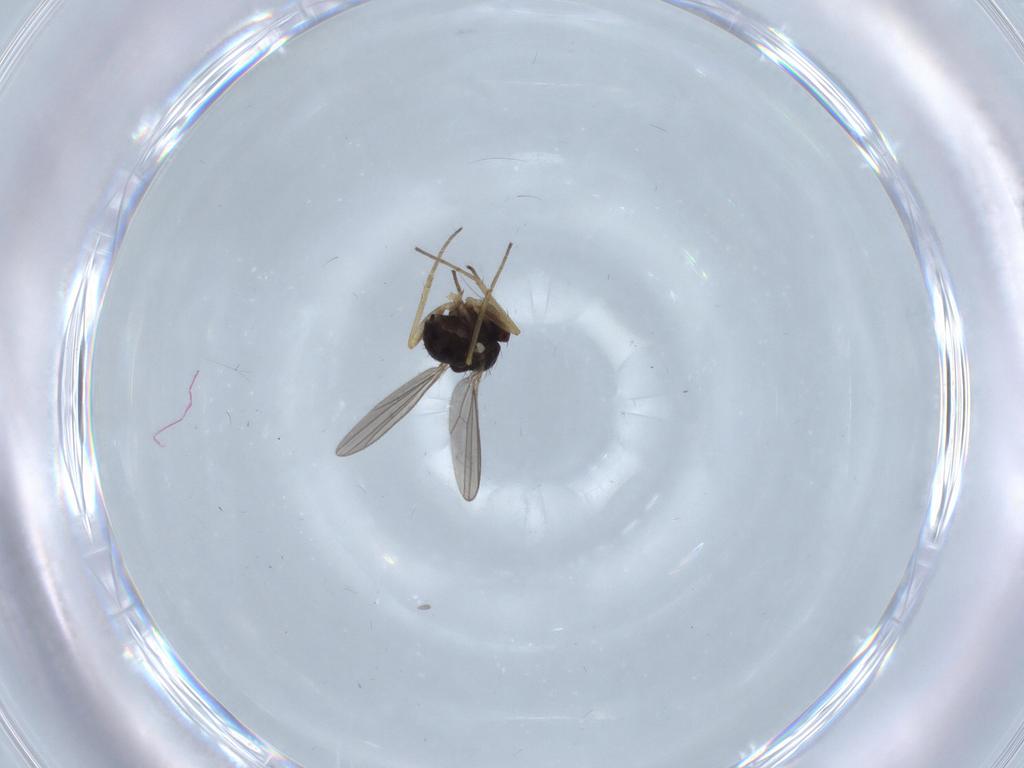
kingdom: Animalia
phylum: Arthropoda
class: Insecta
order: Diptera
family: Dolichopodidae
